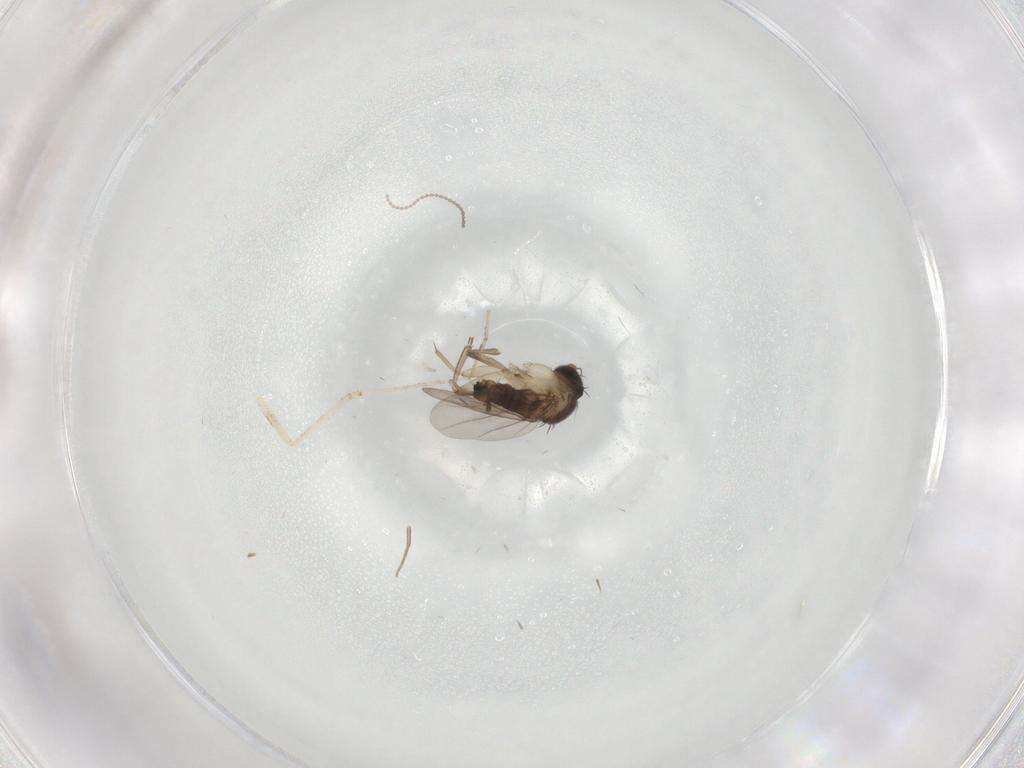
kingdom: Animalia
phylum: Arthropoda
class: Insecta
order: Diptera
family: Phoridae
